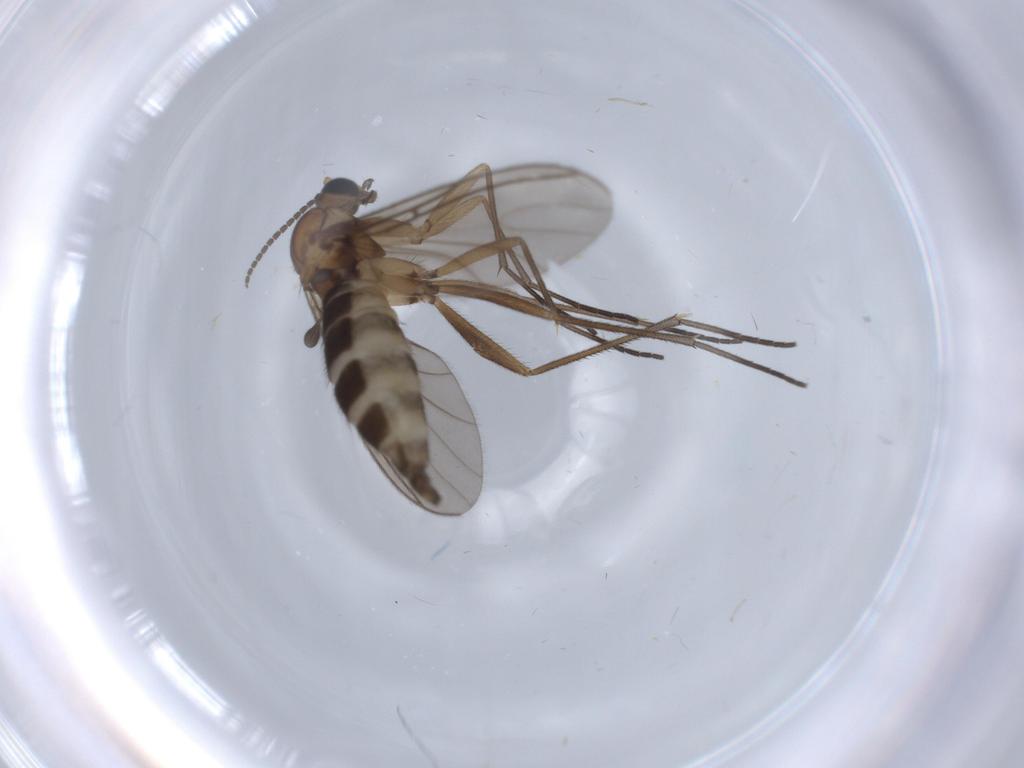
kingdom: Animalia
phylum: Arthropoda
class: Insecta
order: Diptera
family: Sciaridae
